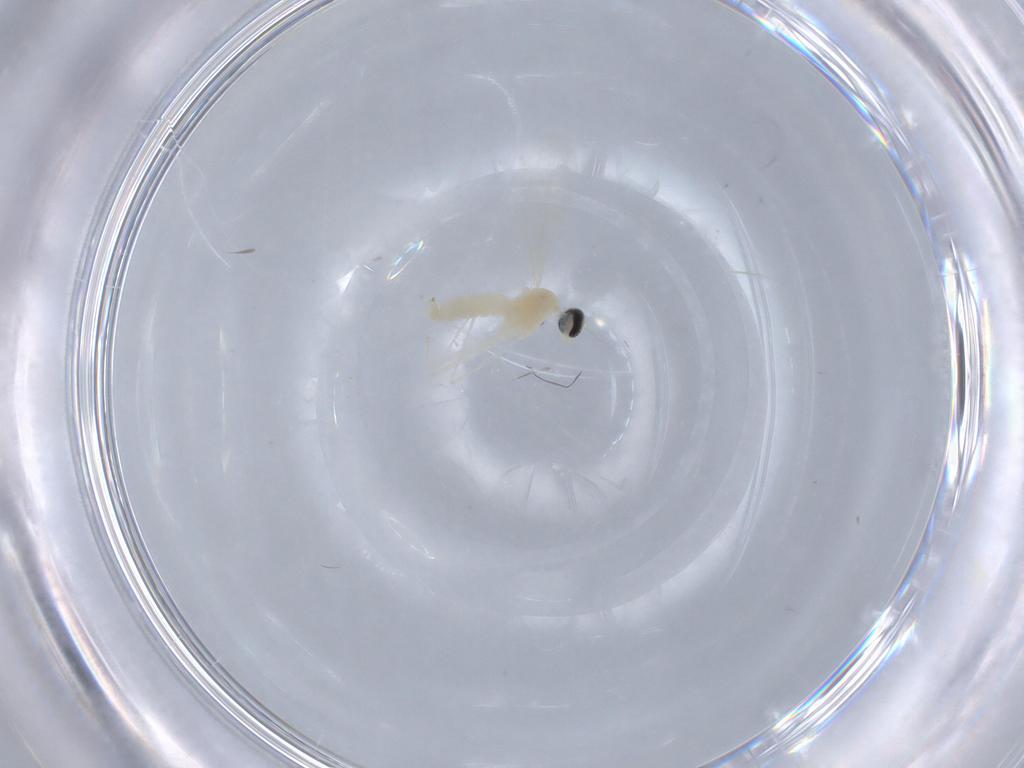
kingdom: Animalia
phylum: Arthropoda
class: Insecta
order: Diptera
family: Cecidomyiidae
